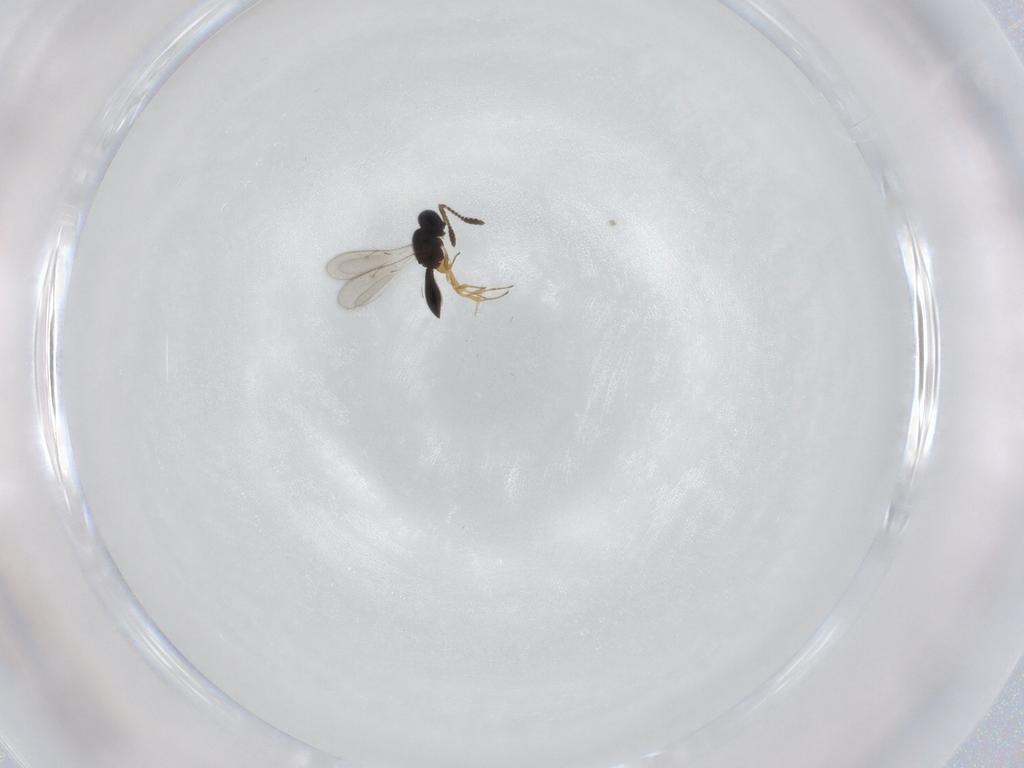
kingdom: Animalia
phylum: Arthropoda
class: Insecta
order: Hymenoptera
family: Scelionidae
